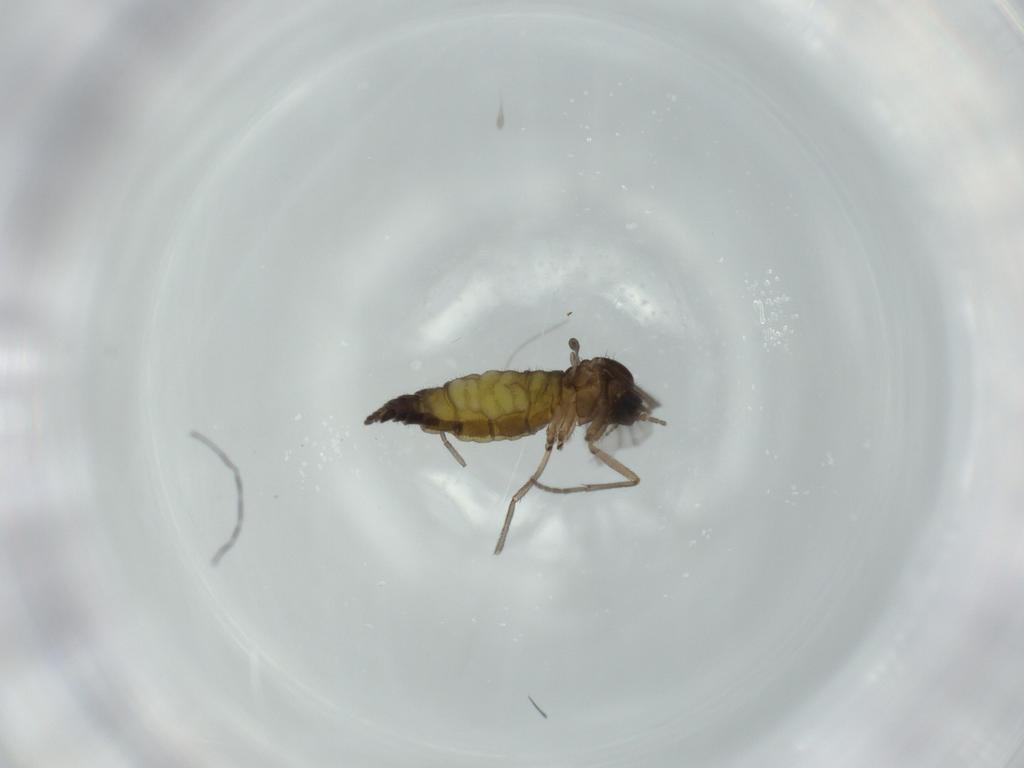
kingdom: Animalia
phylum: Arthropoda
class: Insecta
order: Diptera
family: Sciaridae
